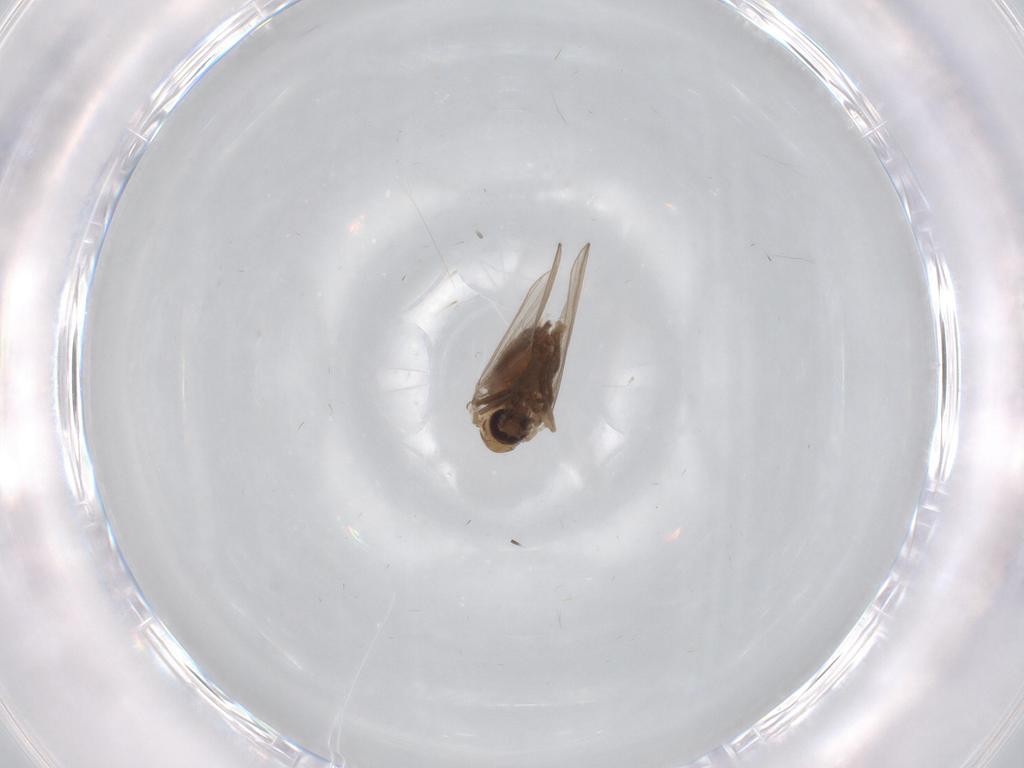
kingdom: Animalia
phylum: Arthropoda
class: Insecta
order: Diptera
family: Psychodidae
